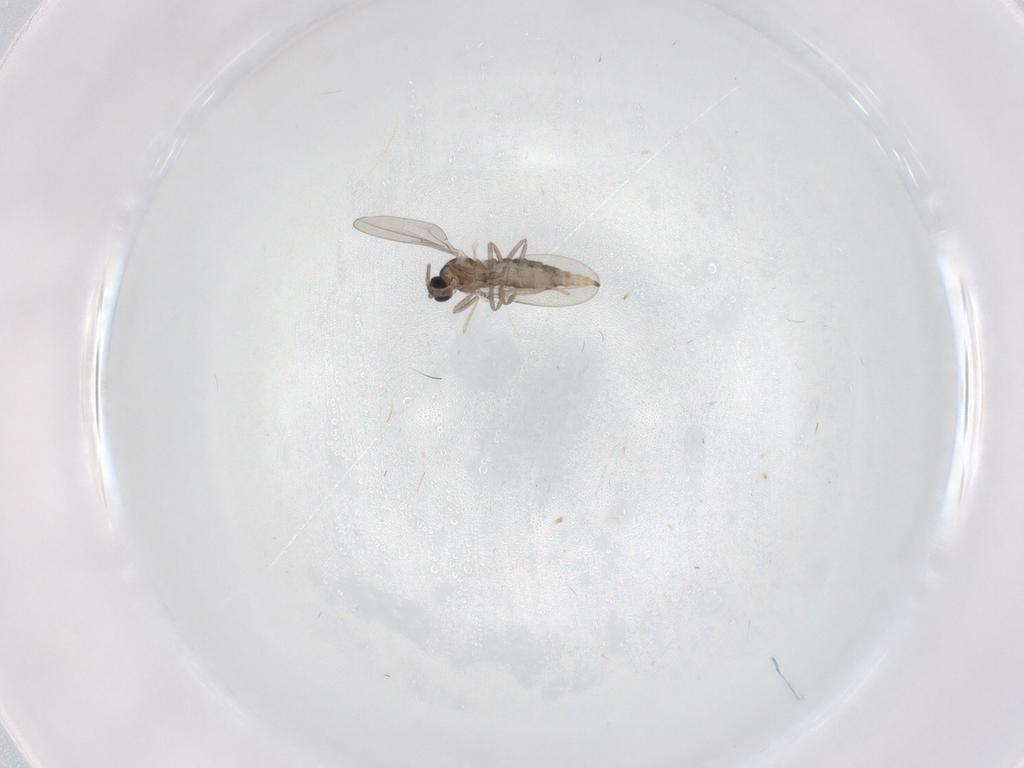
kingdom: Animalia
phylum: Arthropoda
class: Insecta
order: Diptera
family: Cecidomyiidae
